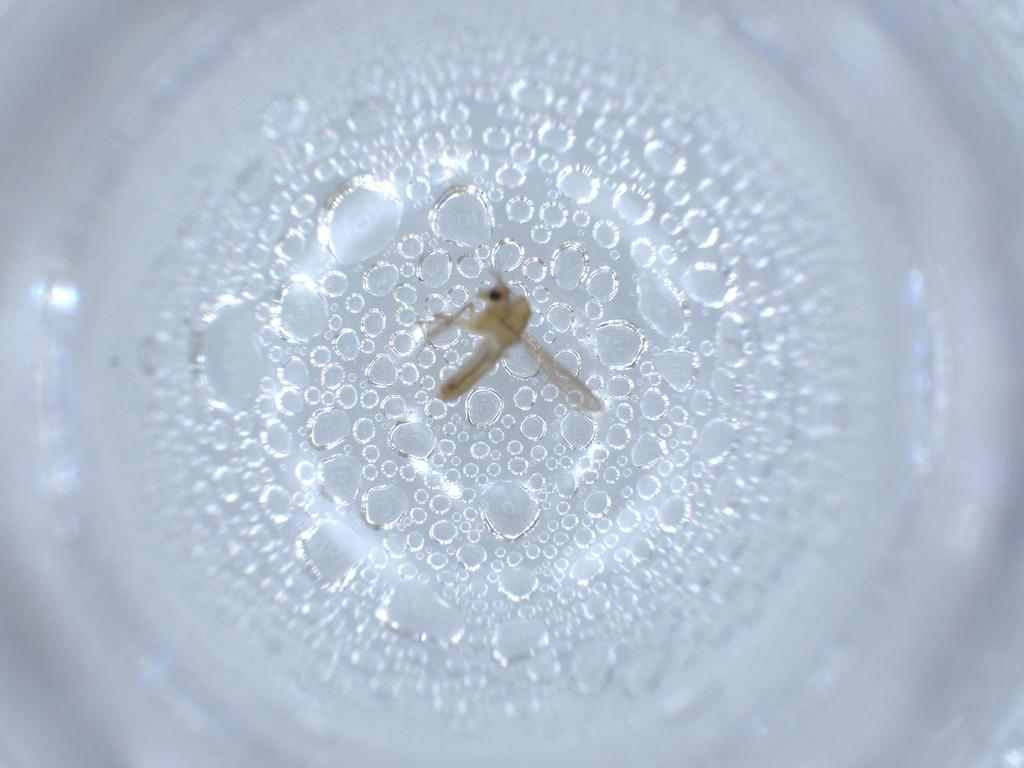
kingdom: Animalia
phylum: Arthropoda
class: Insecta
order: Diptera
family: Chironomidae
